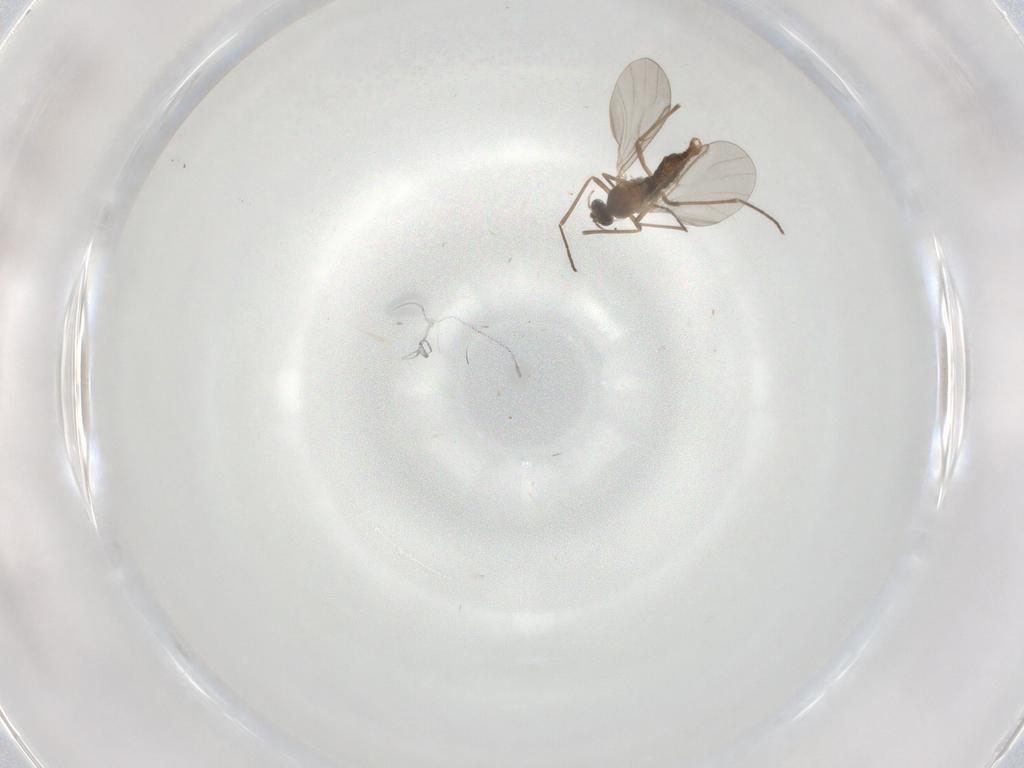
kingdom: Animalia
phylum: Arthropoda
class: Insecta
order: Diptera
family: Cecidomyiidae
